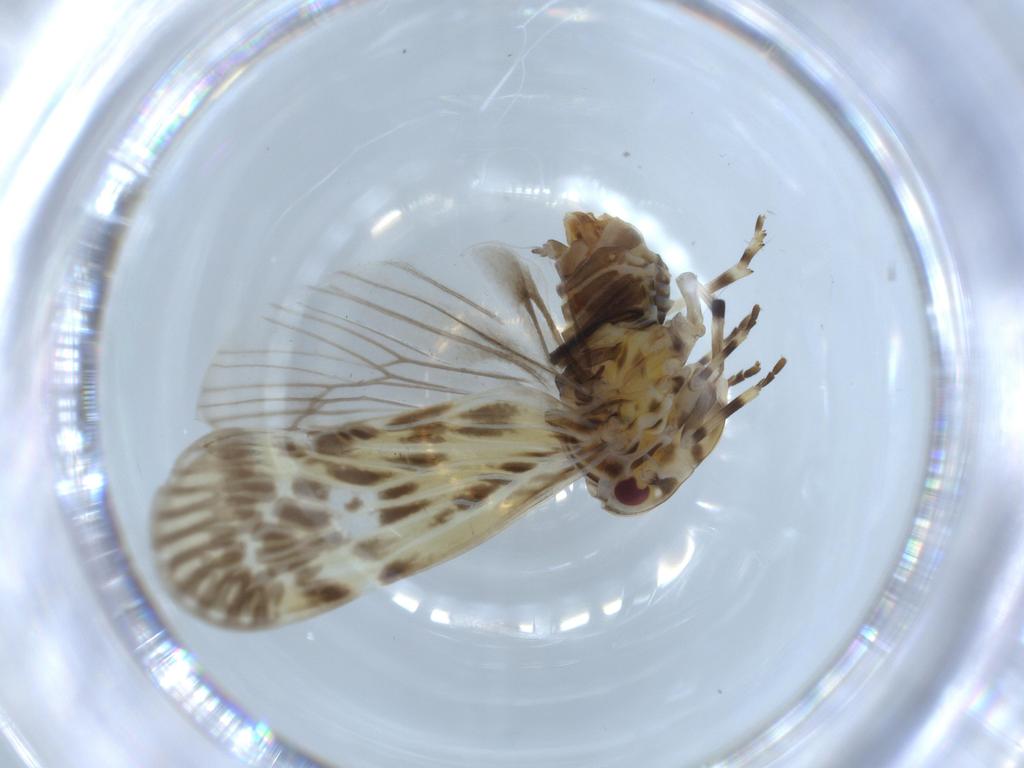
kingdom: Animalia
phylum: Arthropoda
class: Insecta
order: Hemiptera
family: Derbidae
